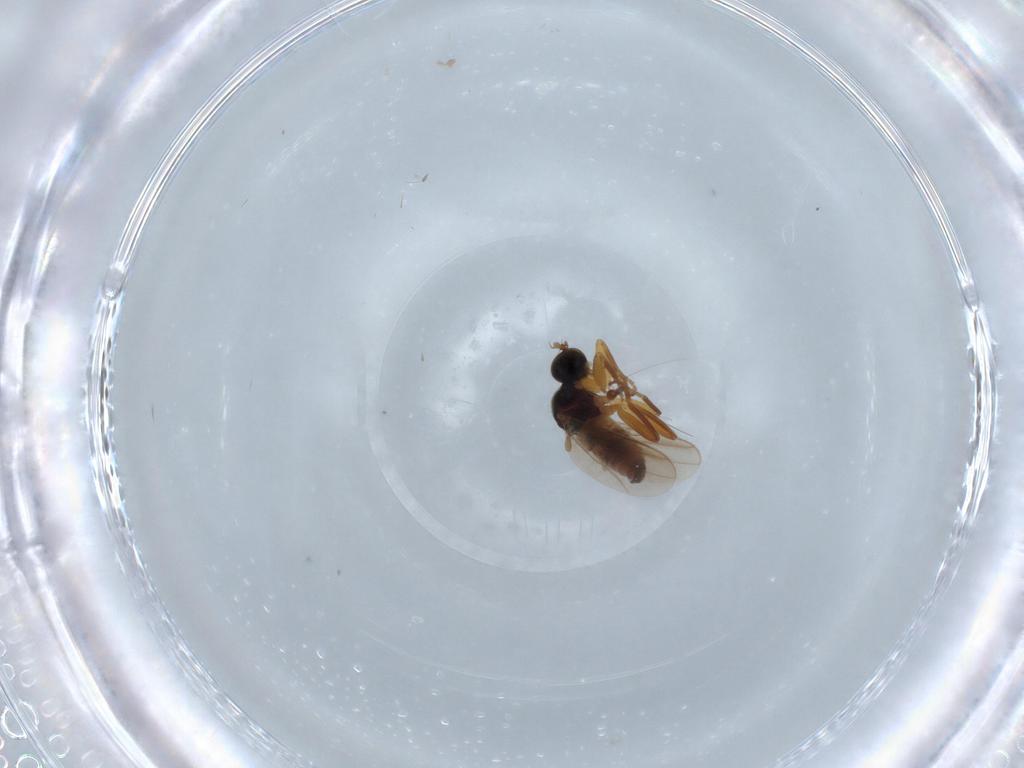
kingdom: Animalia
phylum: Arthropoda
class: Insecta
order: Diptera
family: Hybotidae
